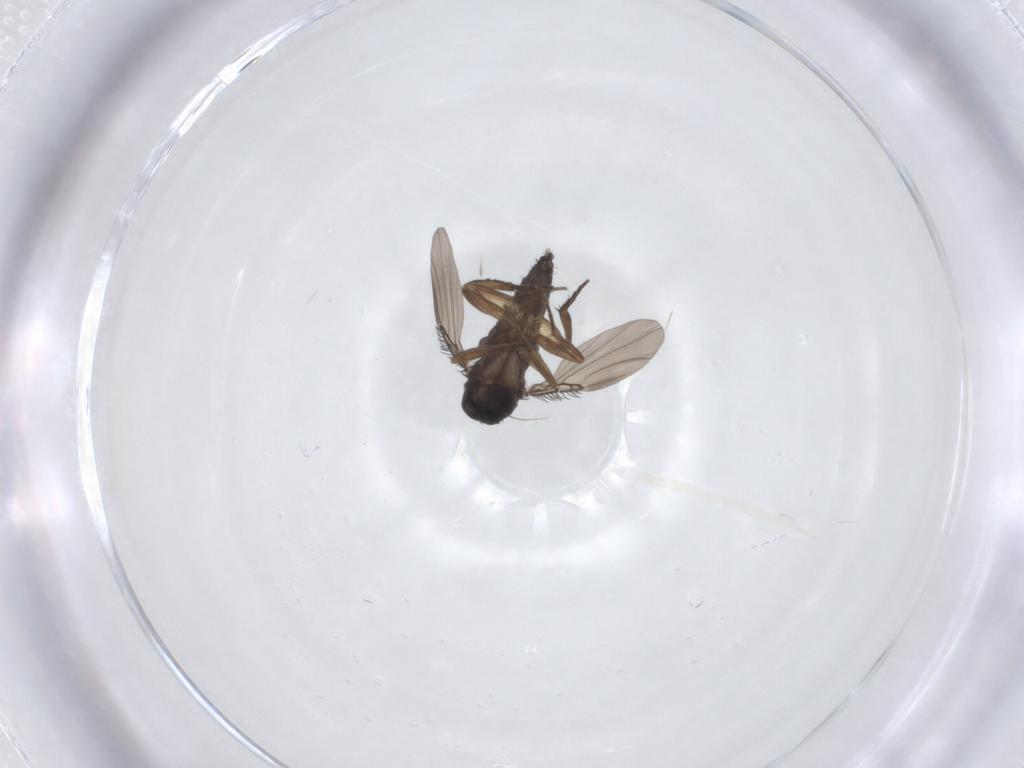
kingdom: Animalia
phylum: Arthropoda
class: Insecta
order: Diptera
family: Phoridae
